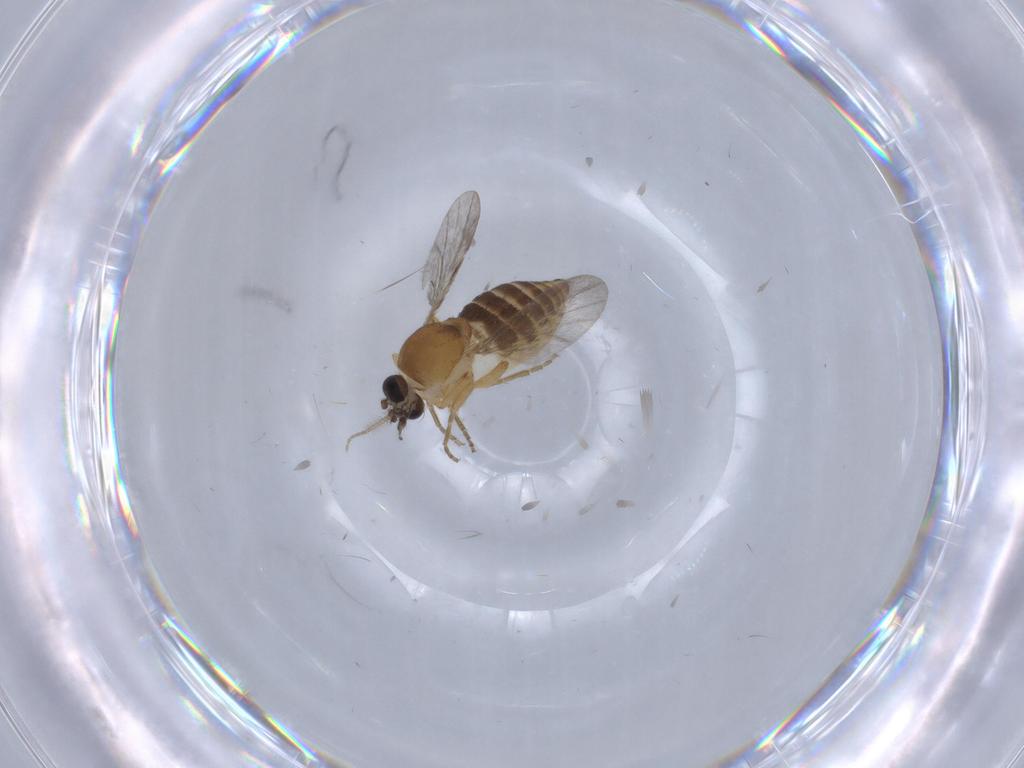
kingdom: Animalia
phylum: Arthropoda
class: Insecta
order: Diptera
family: Ceratopogonidae
